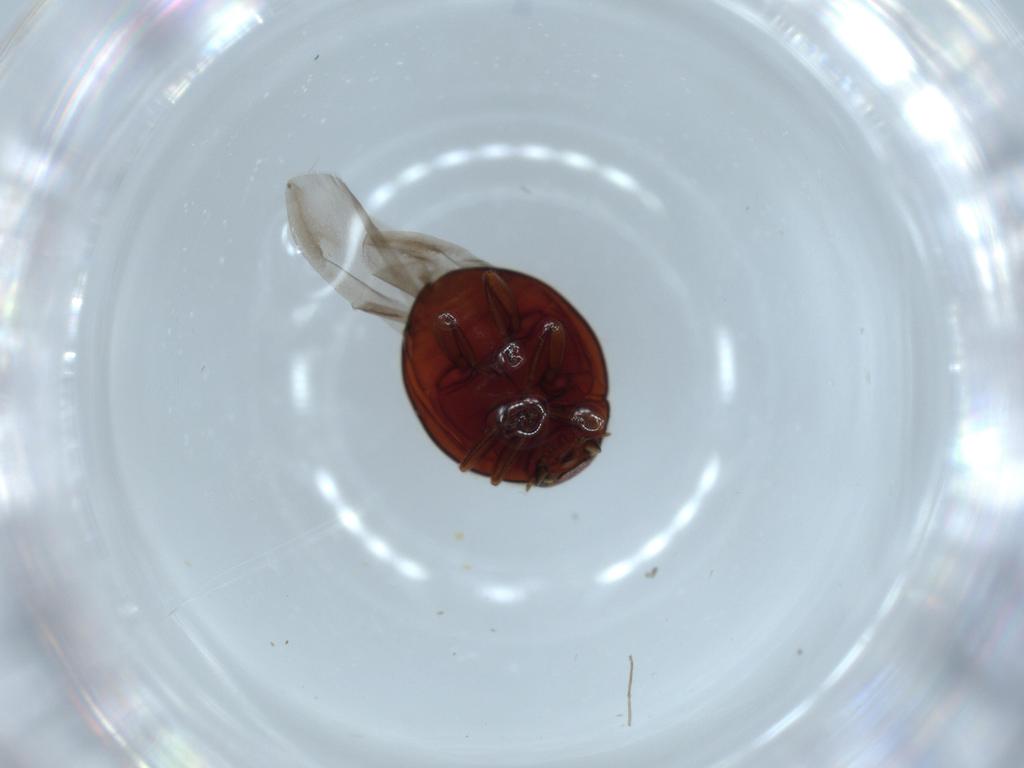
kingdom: Animalia
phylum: Arthropoda
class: Insecta
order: Coleoptera
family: Coccinellidae
